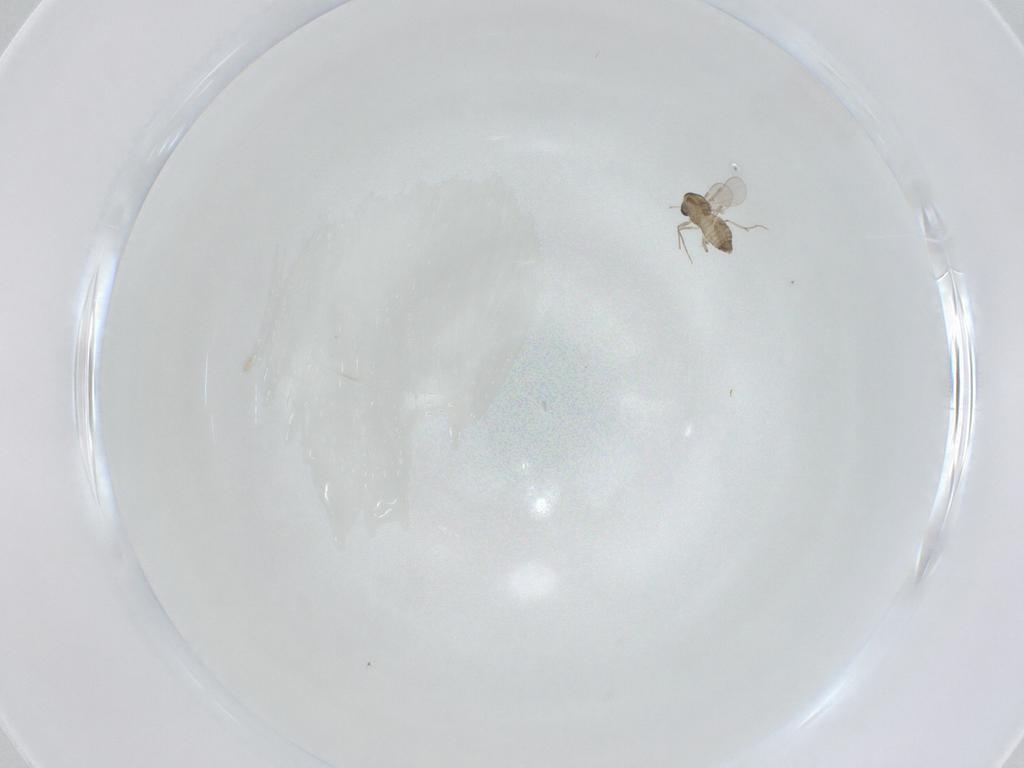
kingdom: Animalia
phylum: Arthropoda
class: Insecta
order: Diptera
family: Cecidomyiidae
